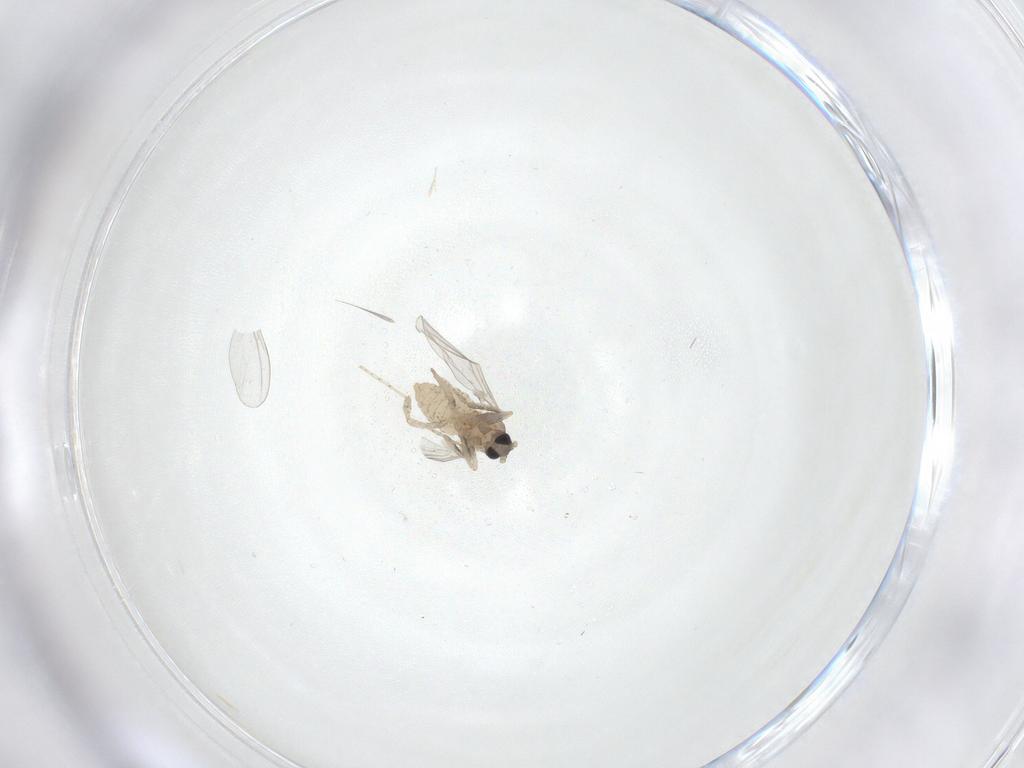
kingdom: Animalia
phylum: Arthropoda
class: Insecta
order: Diptera
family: Cecidomyiidae
